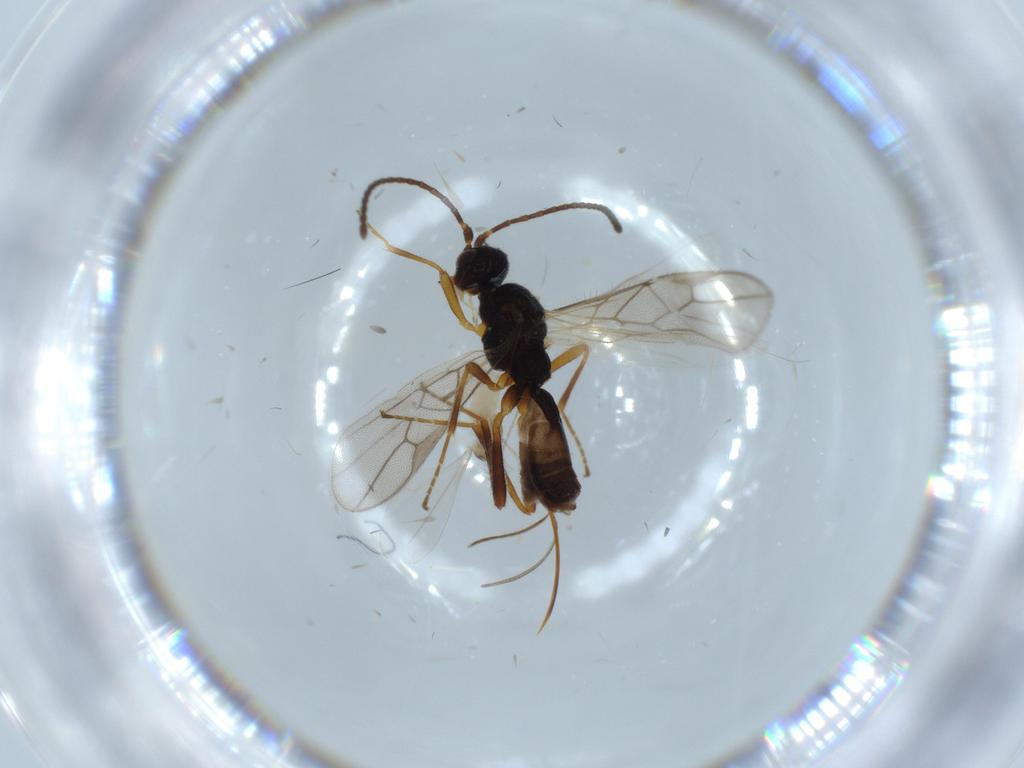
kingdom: Animalia
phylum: Arthropoda
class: Insecta
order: Hymenoptera
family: Braconidae
